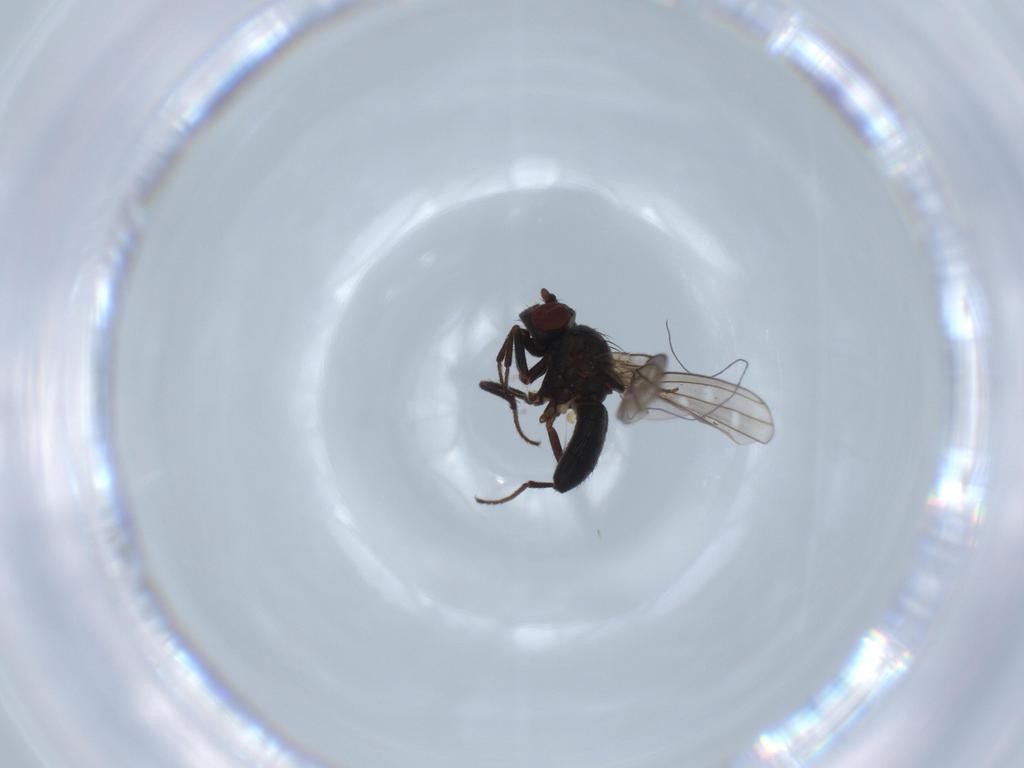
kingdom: Animalia
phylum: Arthropoda
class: Insecta
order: Diptera
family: Ephydridae
